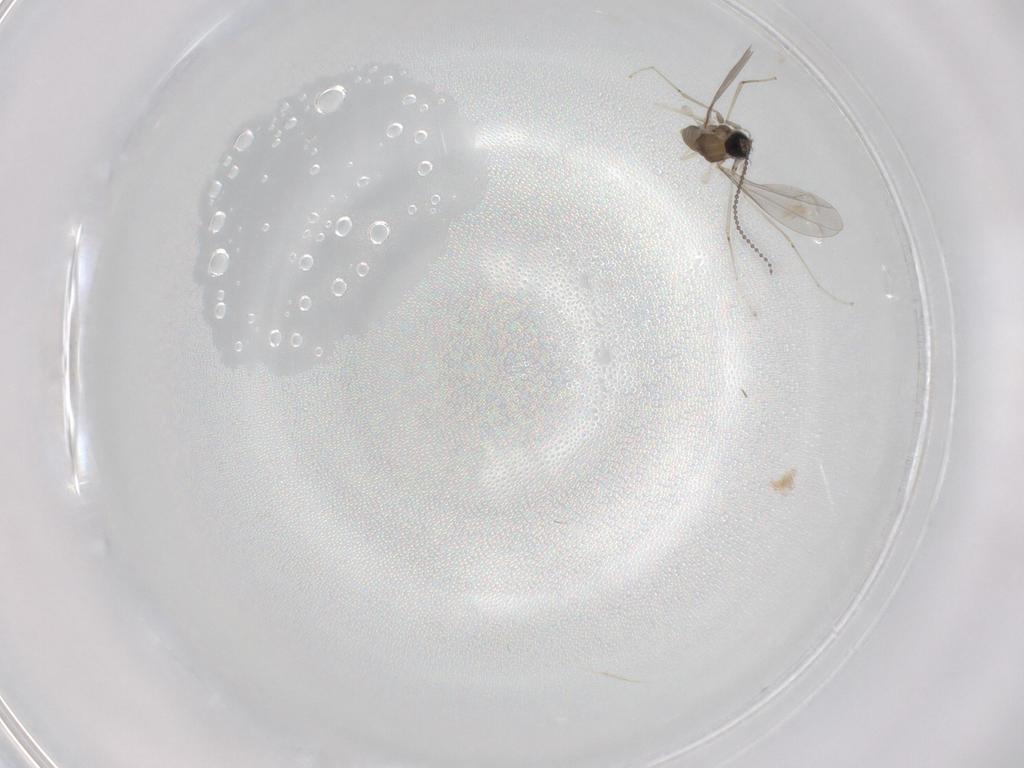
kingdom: Animalia
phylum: Arthropoda
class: Insecta
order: Diptera
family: Cecidomyiidae
